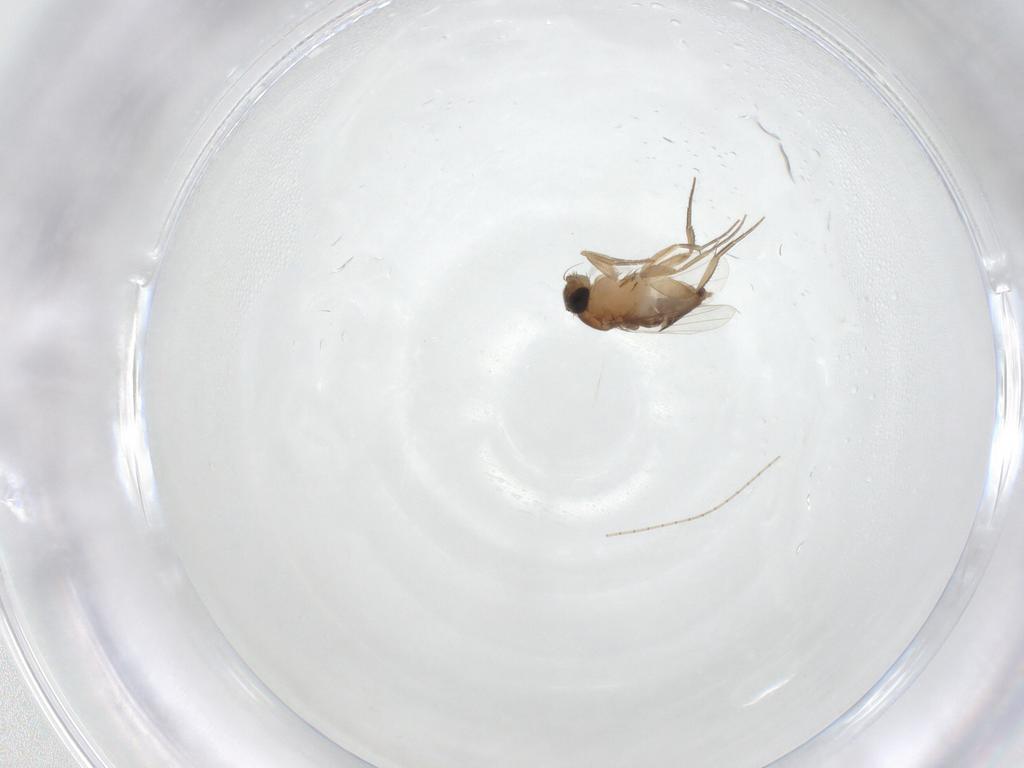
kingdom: Animalia
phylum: Arthropoda
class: Insecta
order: Diptera
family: Phoridae
